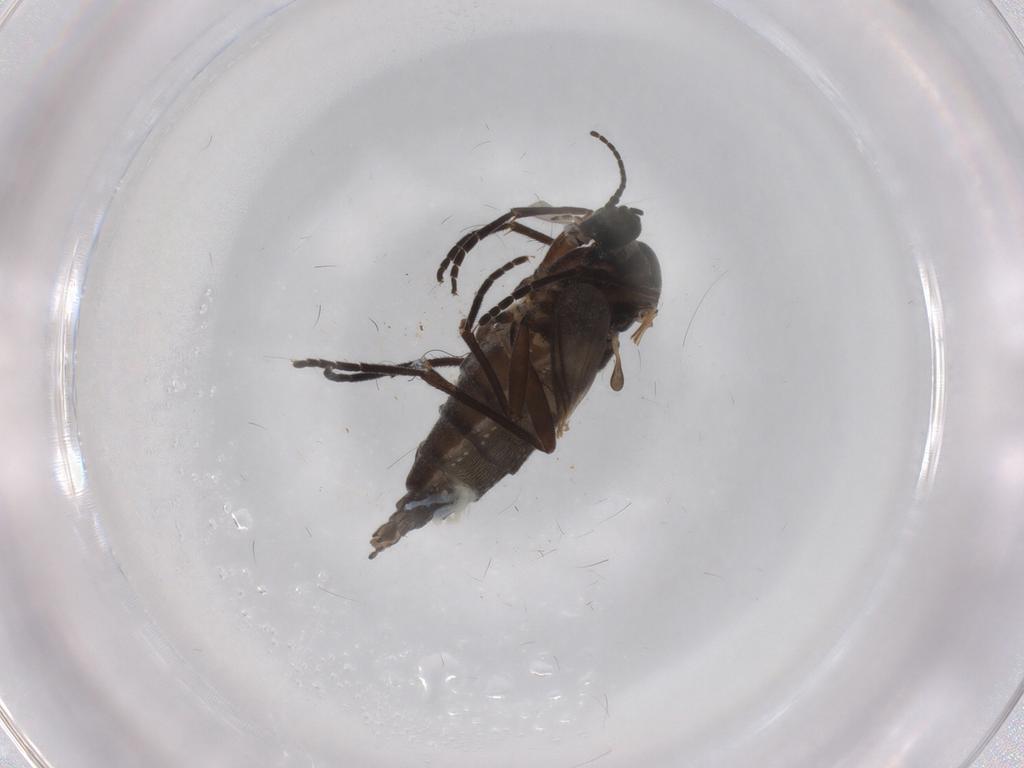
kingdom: Animalia
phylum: Arthropoda
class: Insecta
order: Diptera
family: Sciaridae
